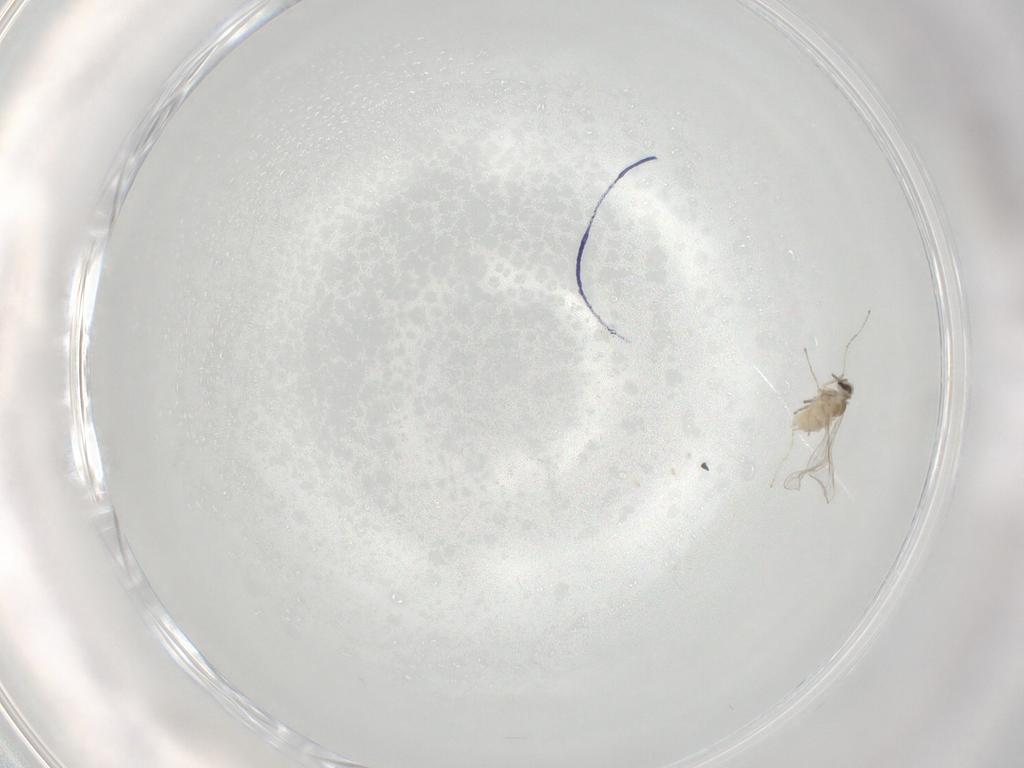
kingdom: Animalia
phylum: Arthropoda
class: Insecta
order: Diptera
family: Cecidomyiidae
